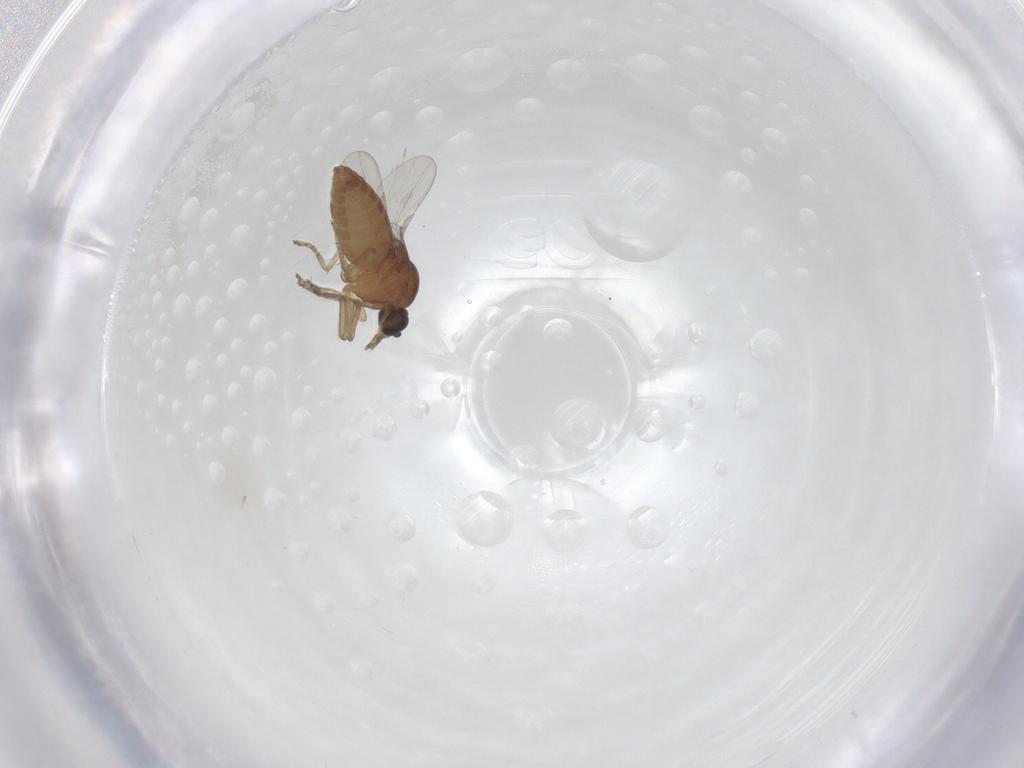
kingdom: Animalia
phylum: Arthropoda
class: Insecta
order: Diptera
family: Ceratopogonidae
